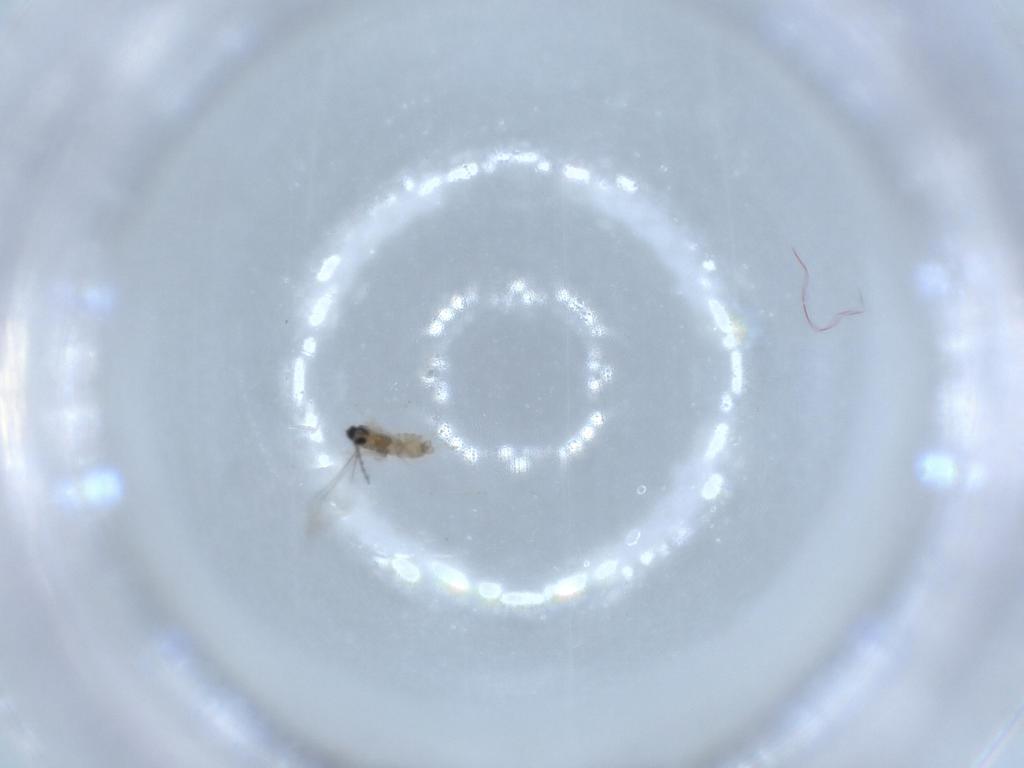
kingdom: Animalia
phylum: Arthropoda
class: Insecta
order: Diptera
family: Cecidomyiidae
